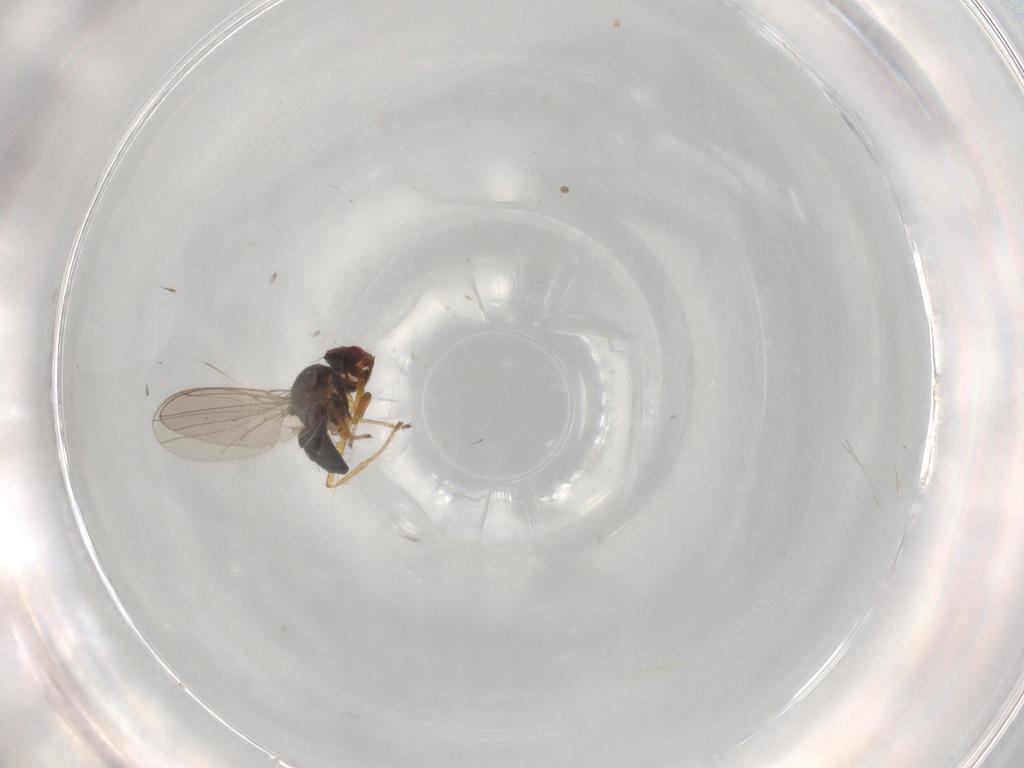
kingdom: Animalia
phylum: Arthropoda
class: Insecta
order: Diptera
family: Ephydridae
